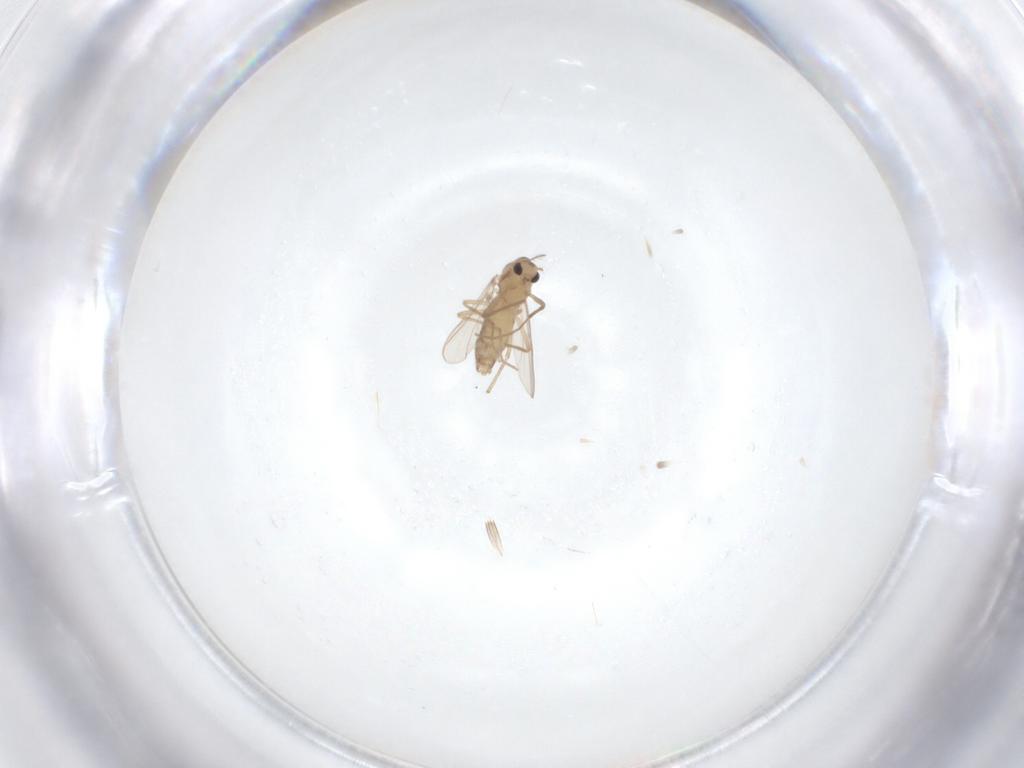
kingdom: Animalia
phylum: Arthropoda
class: Insecta
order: Diptera
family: Chironomidae
